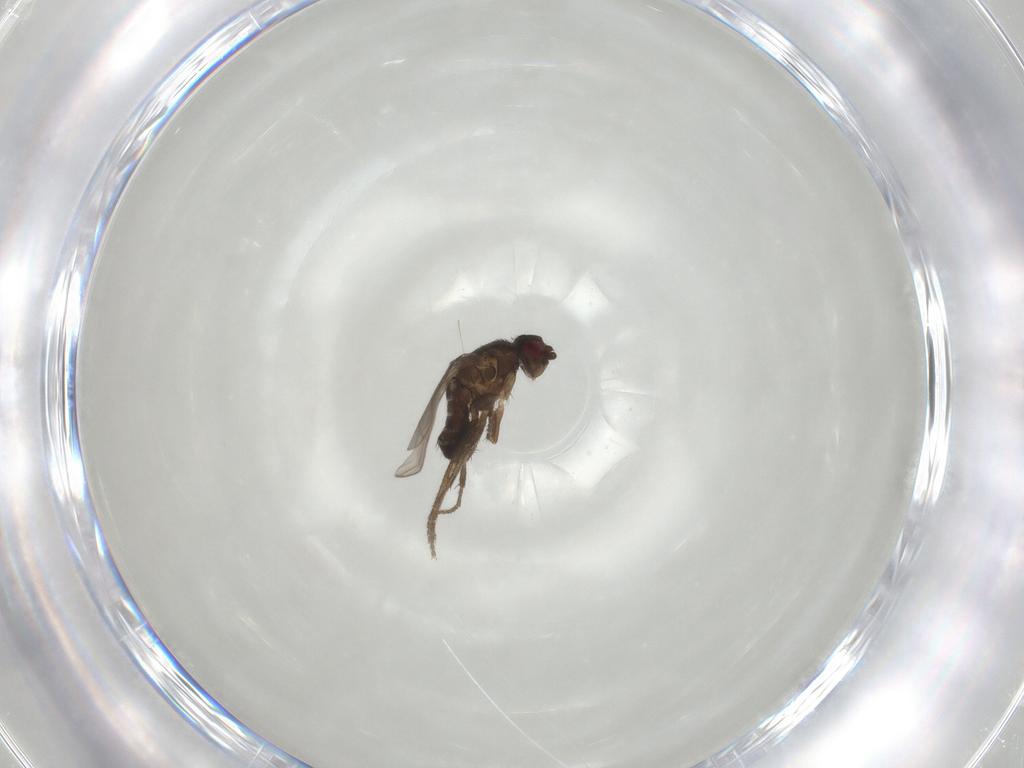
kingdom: Animalia
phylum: Arthropoda
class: Insecta
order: Diptera
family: Sphaeroceridae
